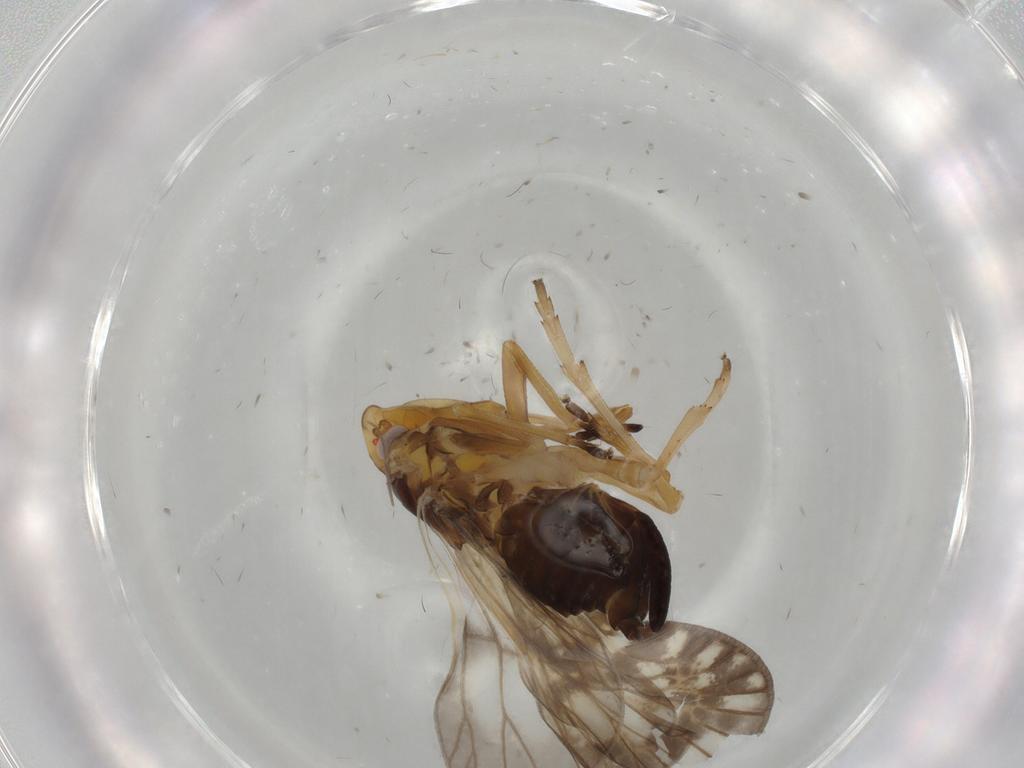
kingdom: Animalia
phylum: Arthropoda
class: Insecta
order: Hemiptera
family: Cixiidae
